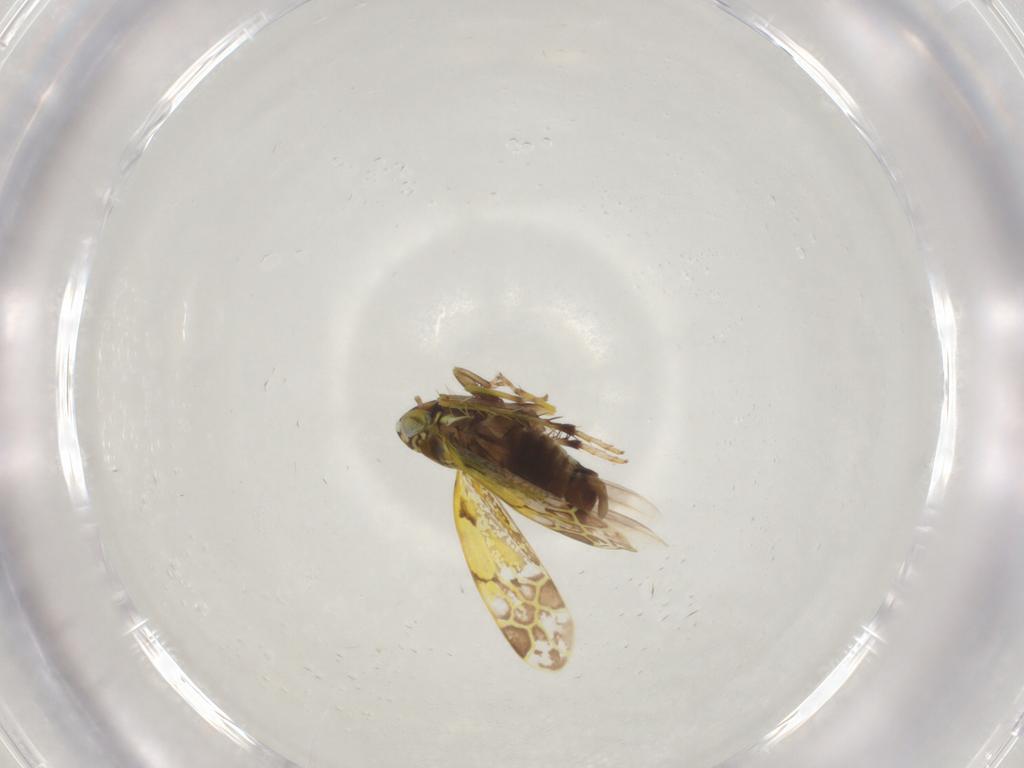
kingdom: Animalia
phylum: Arthropoda
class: Insecta
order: Hemiptera
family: Cicadellidae
